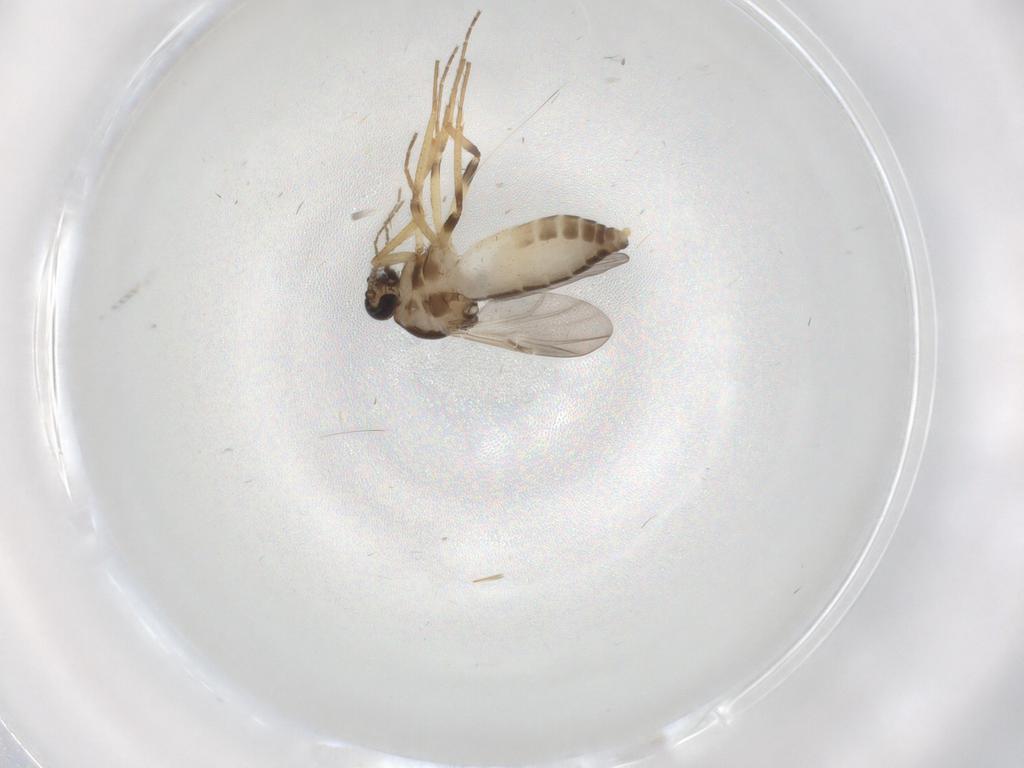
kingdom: Animalia
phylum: Arthropoda
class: Insecta
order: Diptera
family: Ceratopogonidae
